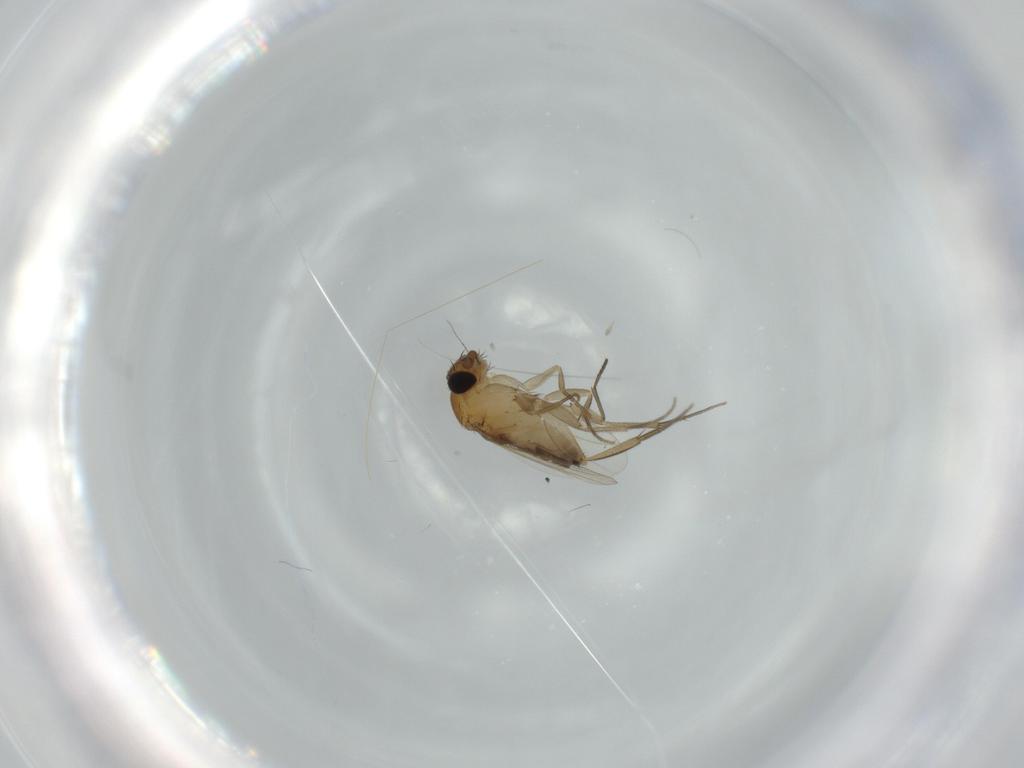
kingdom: Animalia
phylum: Arthropoda
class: Insecta
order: Diptera
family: Phoridae
